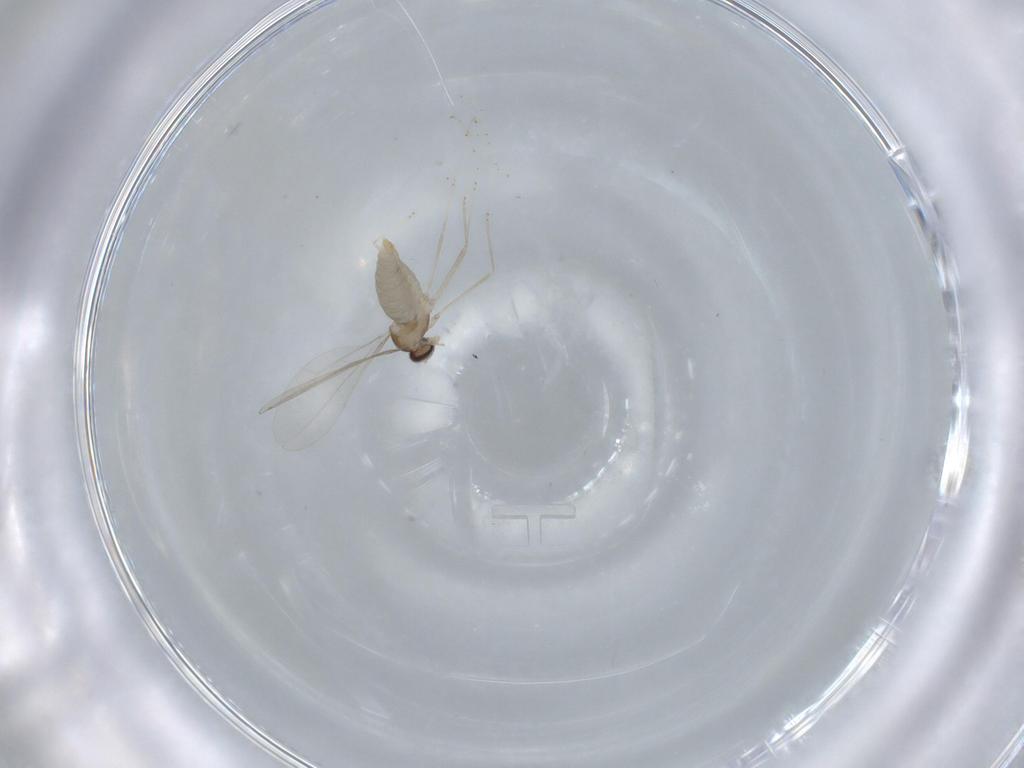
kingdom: Animalia
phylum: Arthropoda
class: Insecta
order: Diptera
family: Cecidomyiidae
